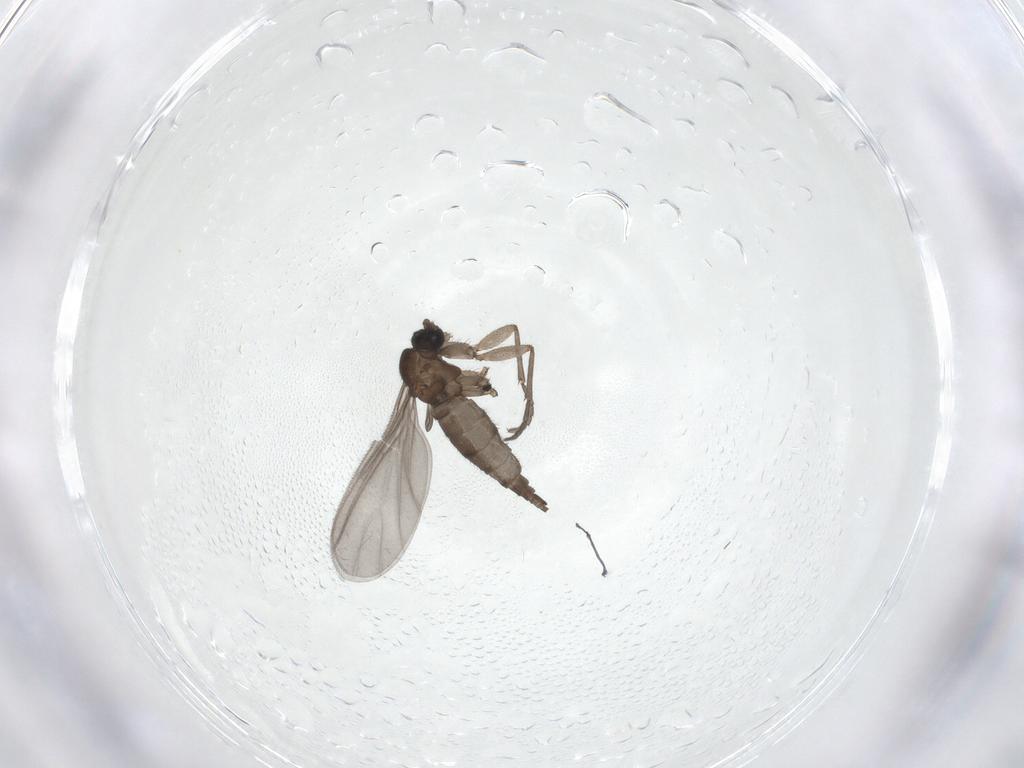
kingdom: Animalia
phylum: Arthropoda
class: Insecta
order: Diptera
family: Sciaridae
